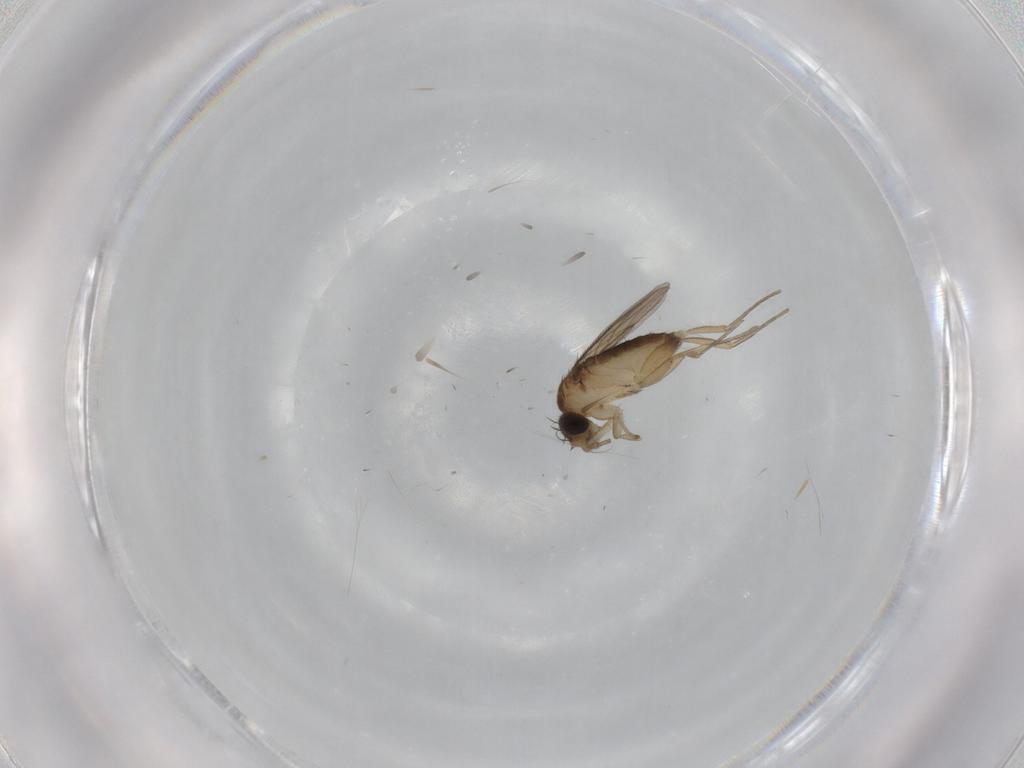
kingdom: Animalia
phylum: Arthropoda
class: Insecta
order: Diptera
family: Phoridae
